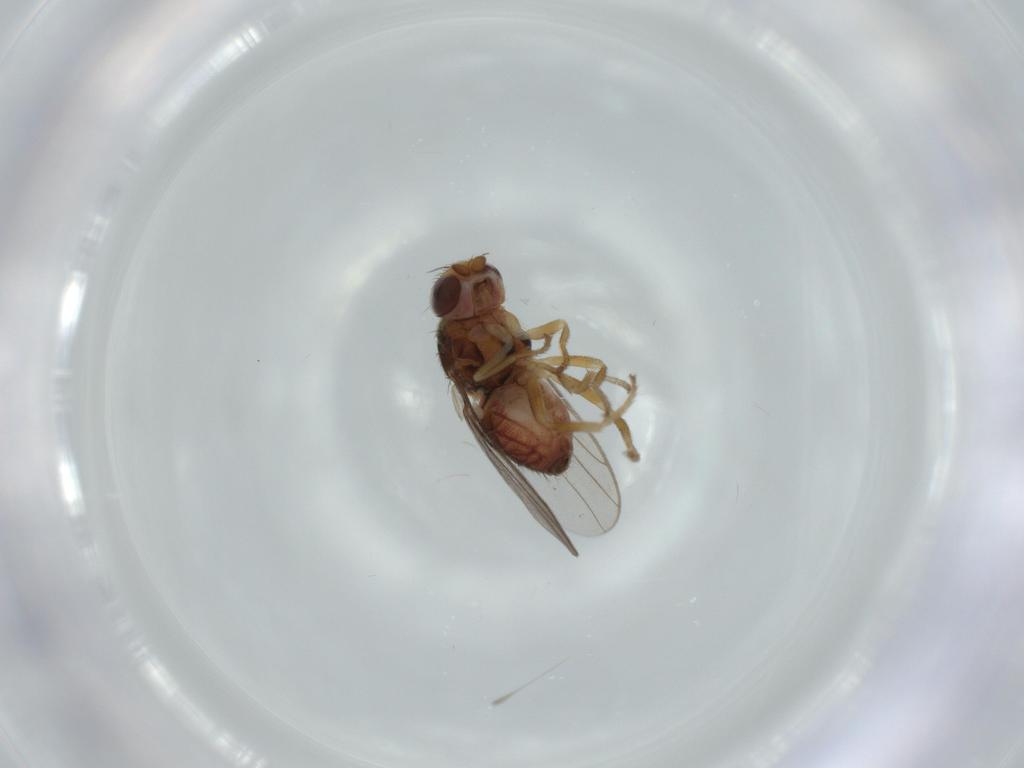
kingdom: Animalia
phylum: Arthropoda
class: Insecta
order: Diptera
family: Chloropidae
